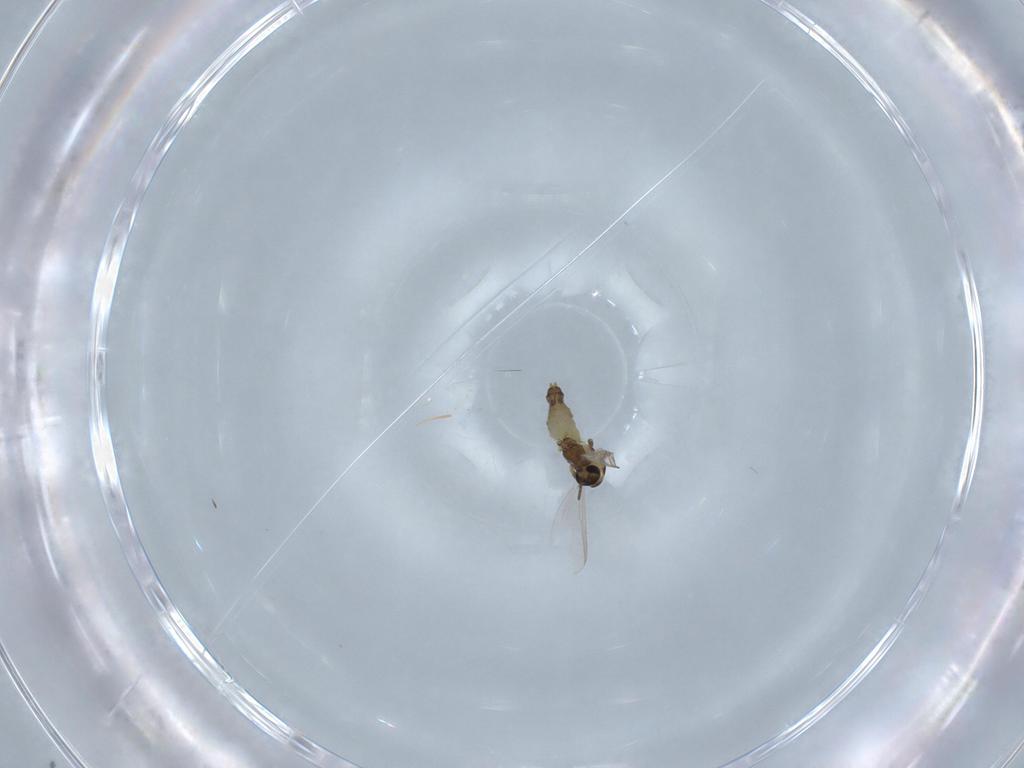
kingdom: Animalia
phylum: Arthropoda
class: Insecta
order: Diptera
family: Chironomidae
